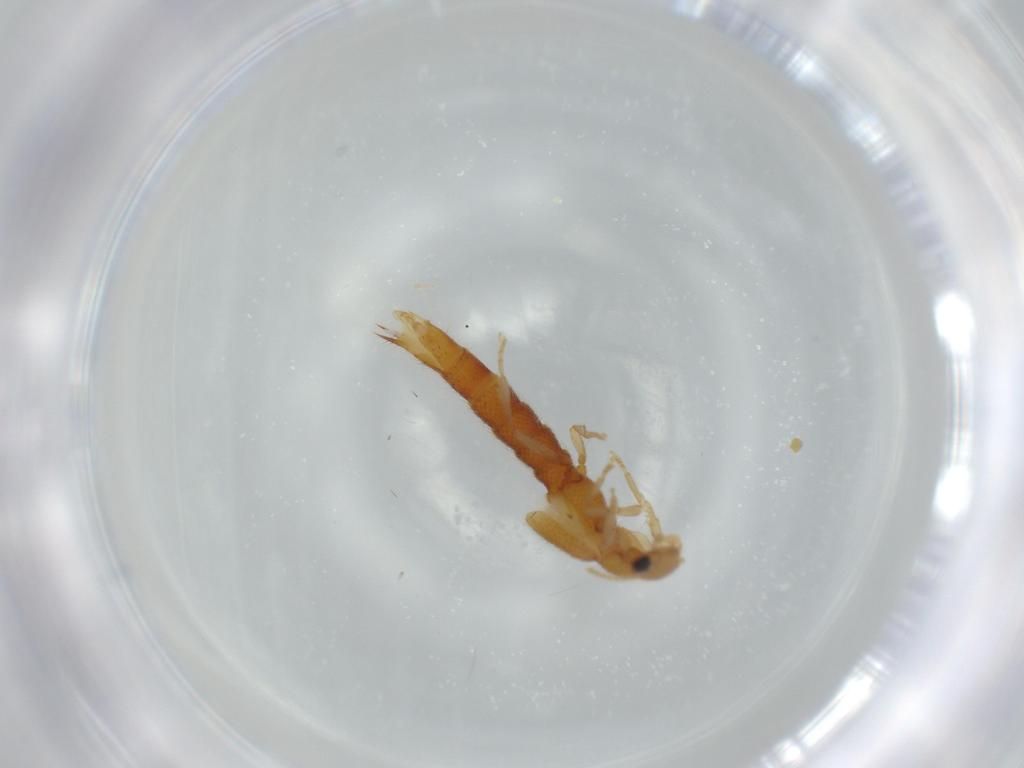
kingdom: Animalia
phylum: Arthropoda
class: Insecta
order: Coleoptera
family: Staphylinidae
